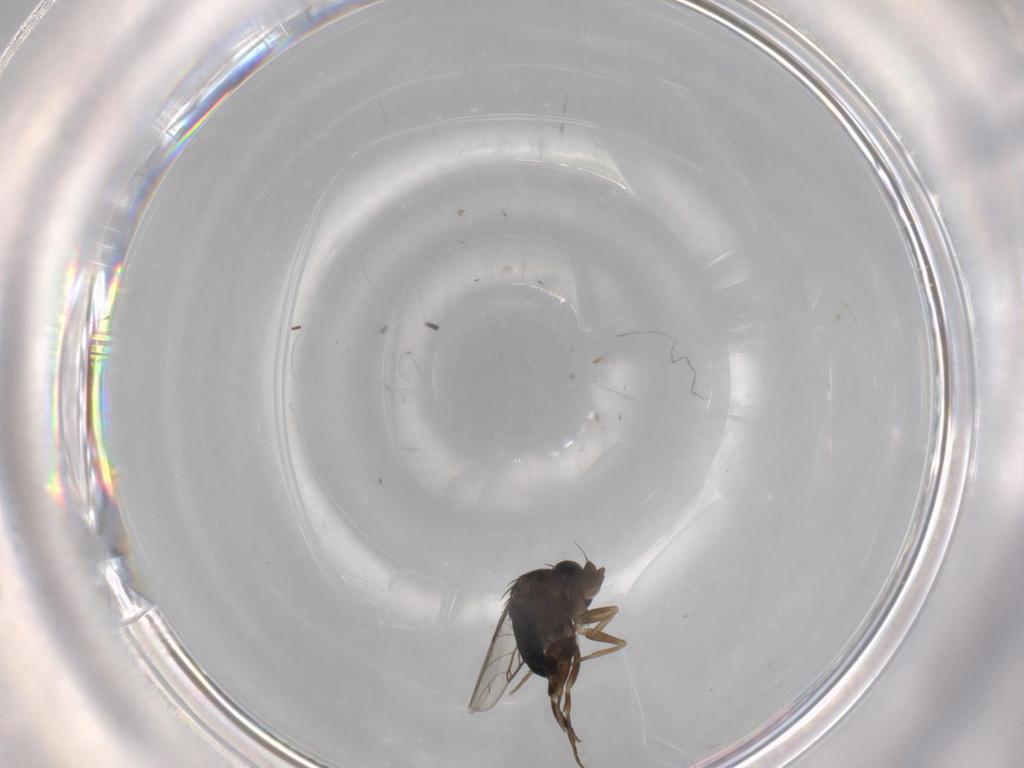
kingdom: Animalia
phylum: Arthropoda
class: Insecta
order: Diptera
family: Phoridae
